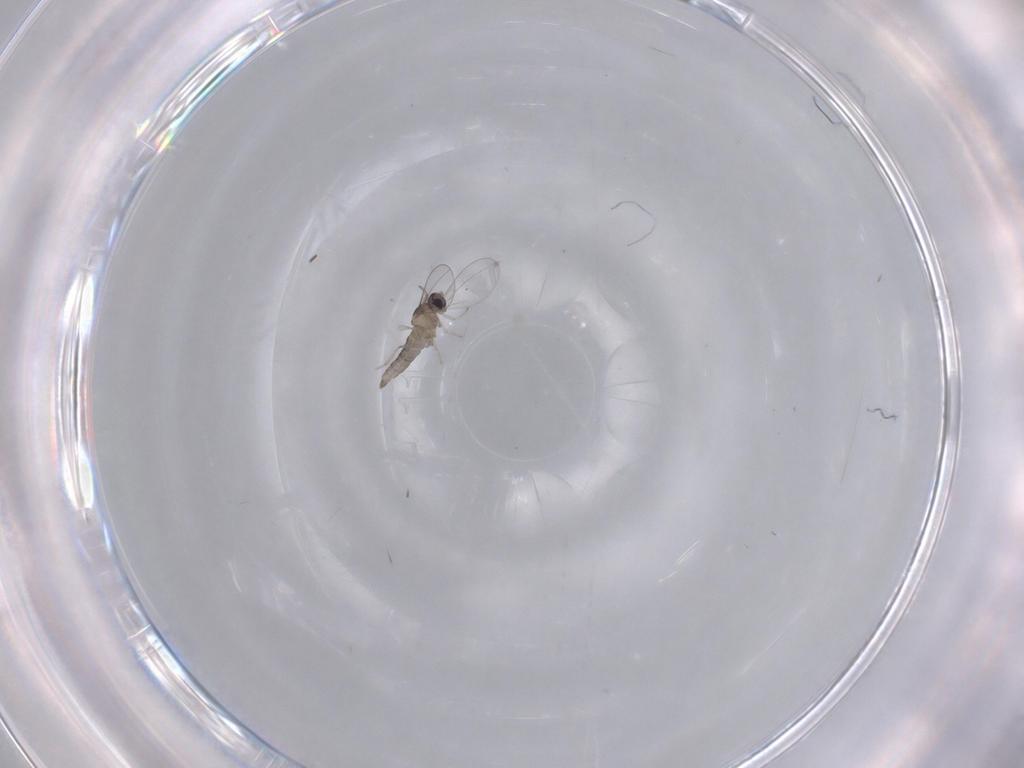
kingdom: Animalia
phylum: Arthropoda
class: Insecta
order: Diptera
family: Cecidomyiidae
